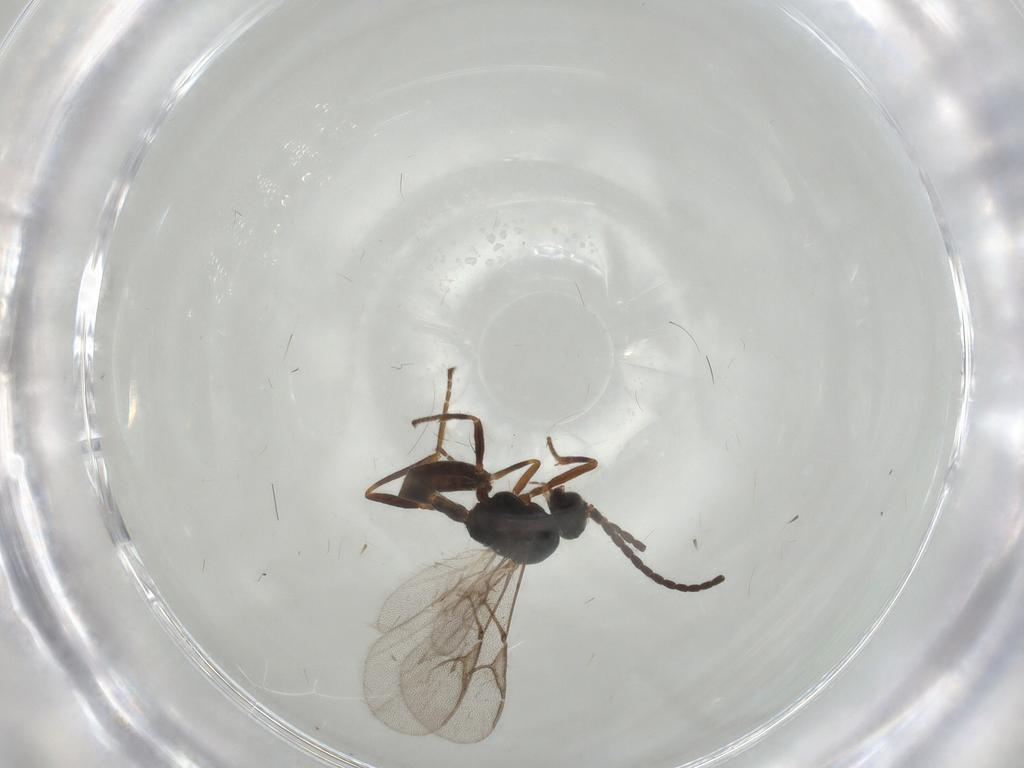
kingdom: Animalia
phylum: Arthropoda
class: Insecta
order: Hymenoptera
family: Braconidae
